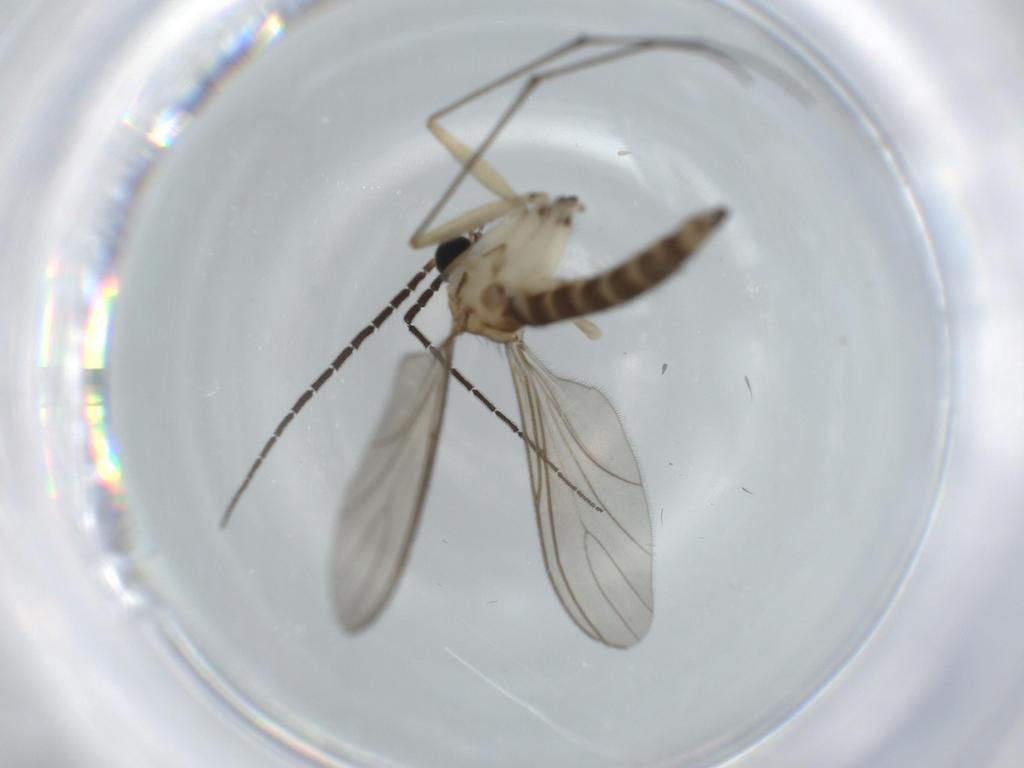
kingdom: Animalia
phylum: Arthropoda
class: Insecta
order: Diptera
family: Sciaridae
